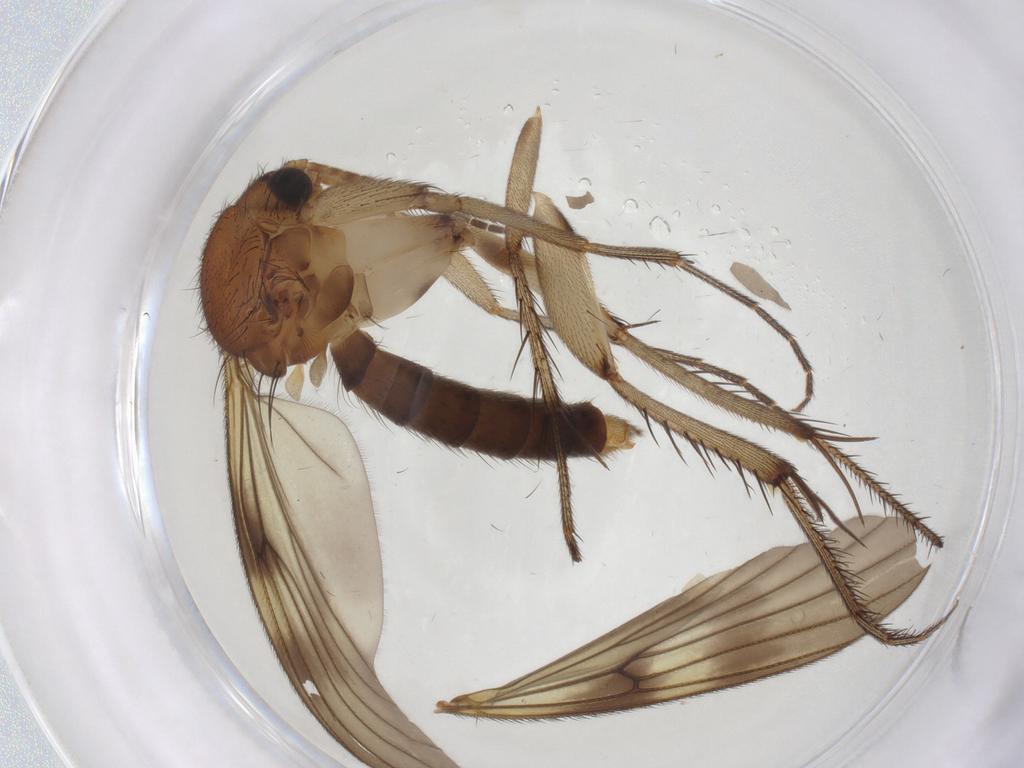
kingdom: Animalia
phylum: Arthropoda
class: Insecta
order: Diptera
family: Mycetophilidae
